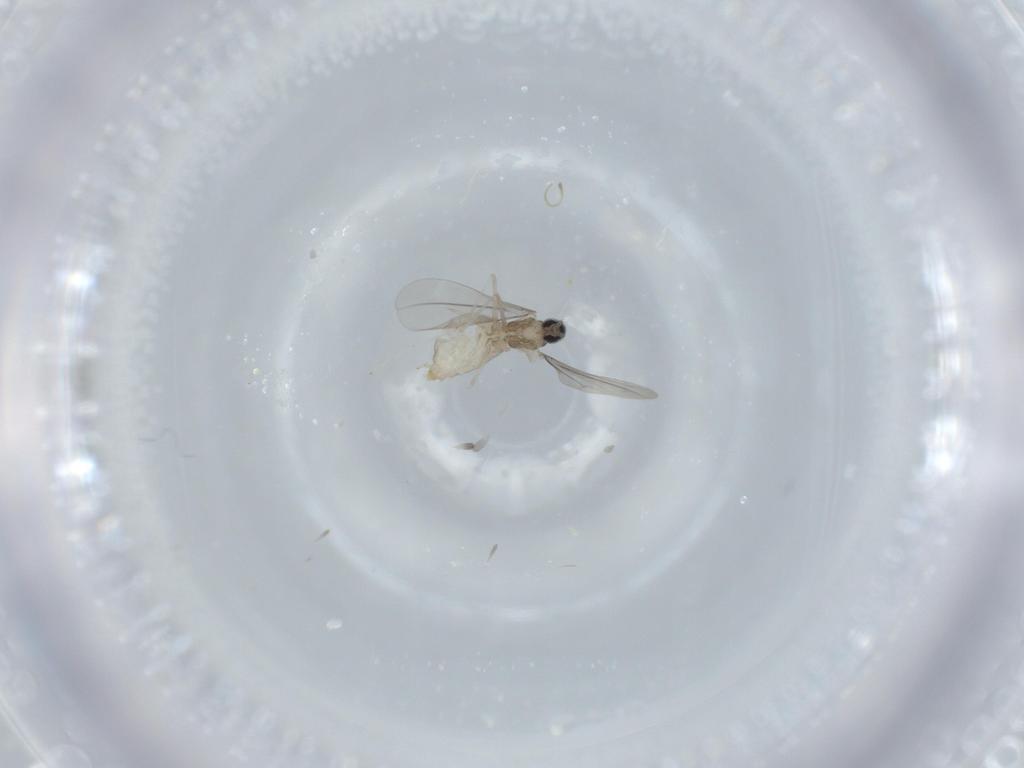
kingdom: Animalia
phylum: Arthropoda
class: Insecta
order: Diptera
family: Cecidomyiidae
